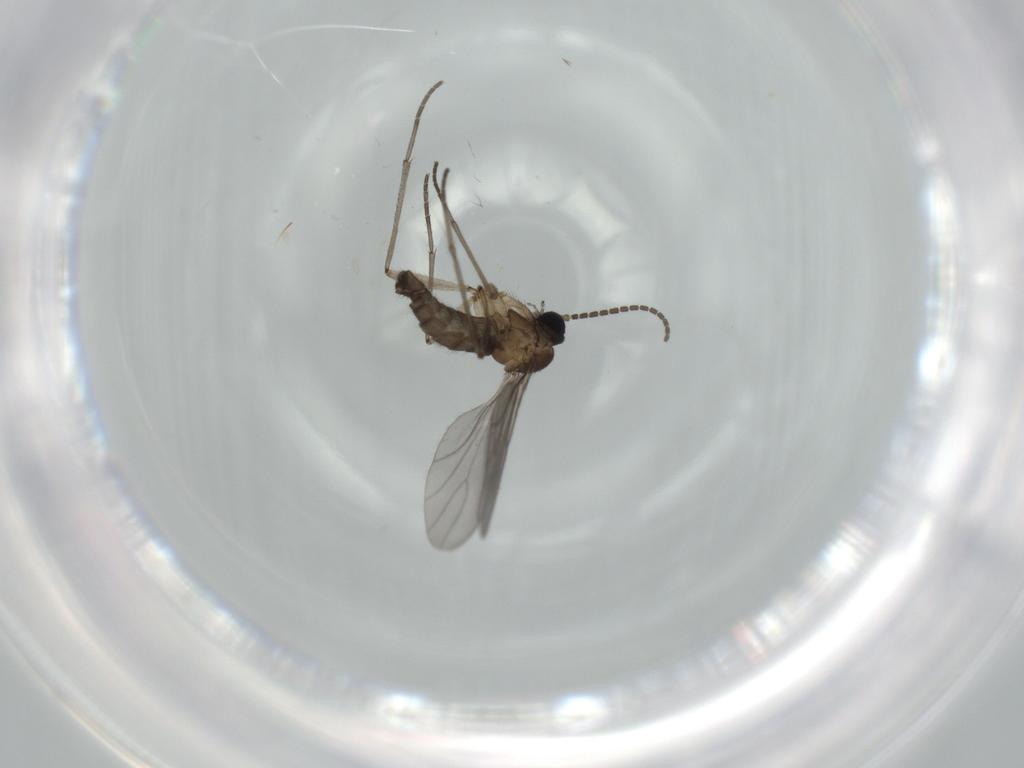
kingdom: Animalia
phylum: Arthropoda
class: Insecta
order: Diptera
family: Sciaridae
